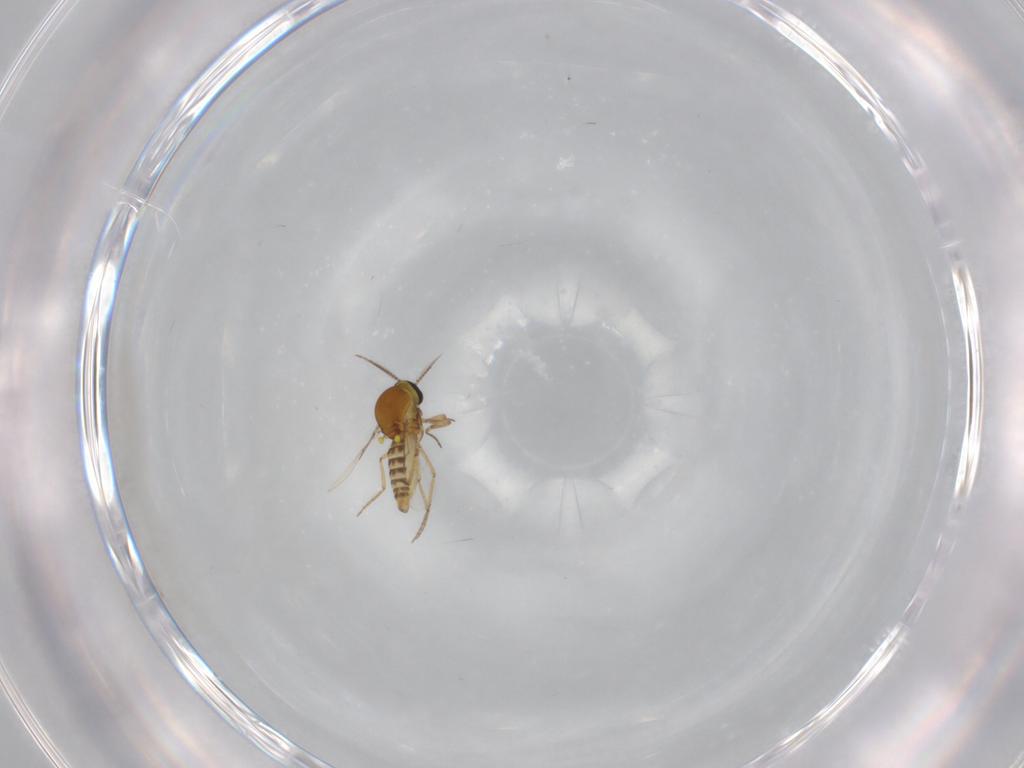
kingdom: Animalia
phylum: Arthropoda
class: Insecta
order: Diptera
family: Ceratopogonidae
